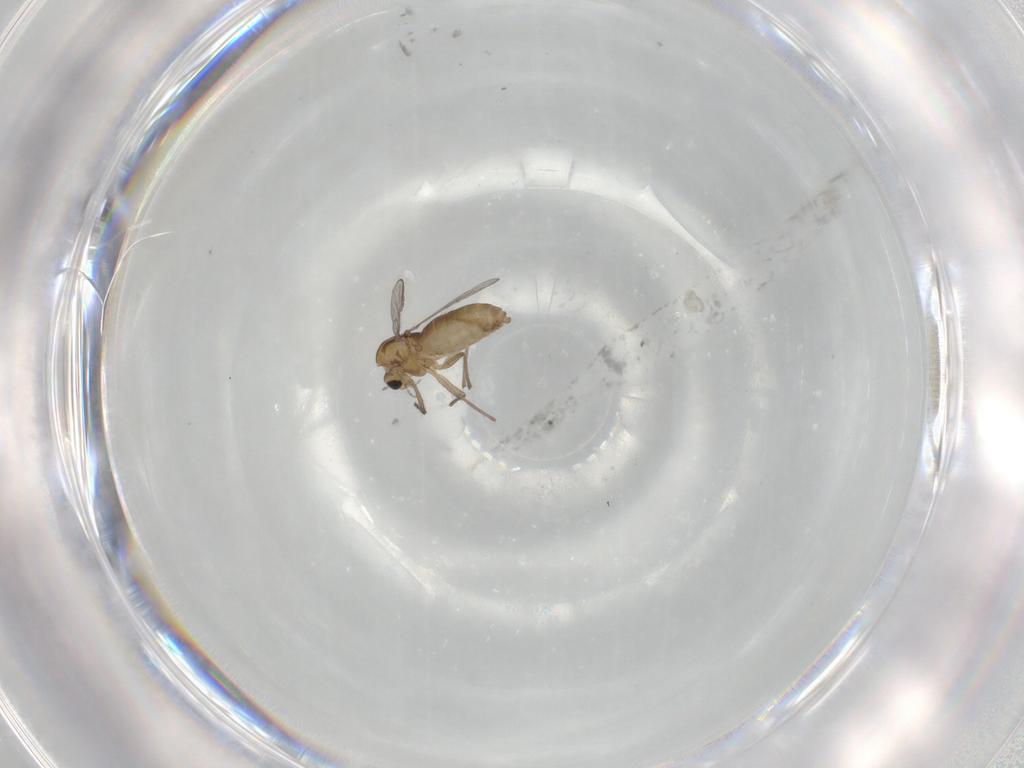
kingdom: Animalia
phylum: Arthropoda
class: Insecta
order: Diptera
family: Chironomidae
